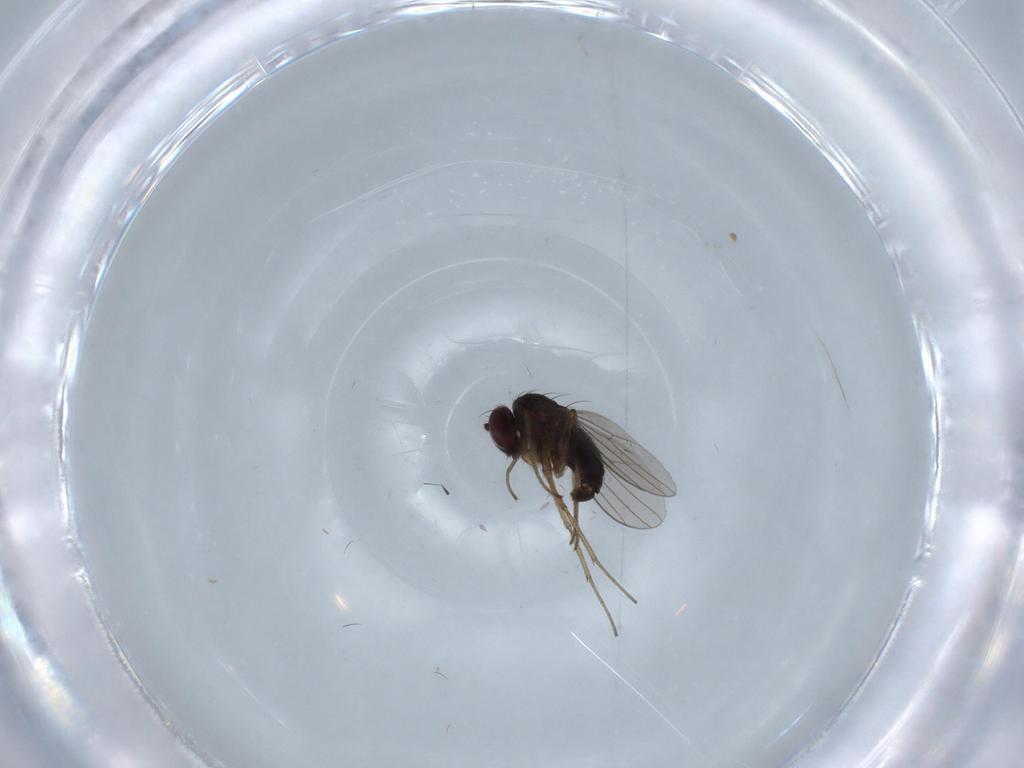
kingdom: Animalia
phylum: Arthropoda
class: Insecta
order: Diptera
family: Dolichopodidae
